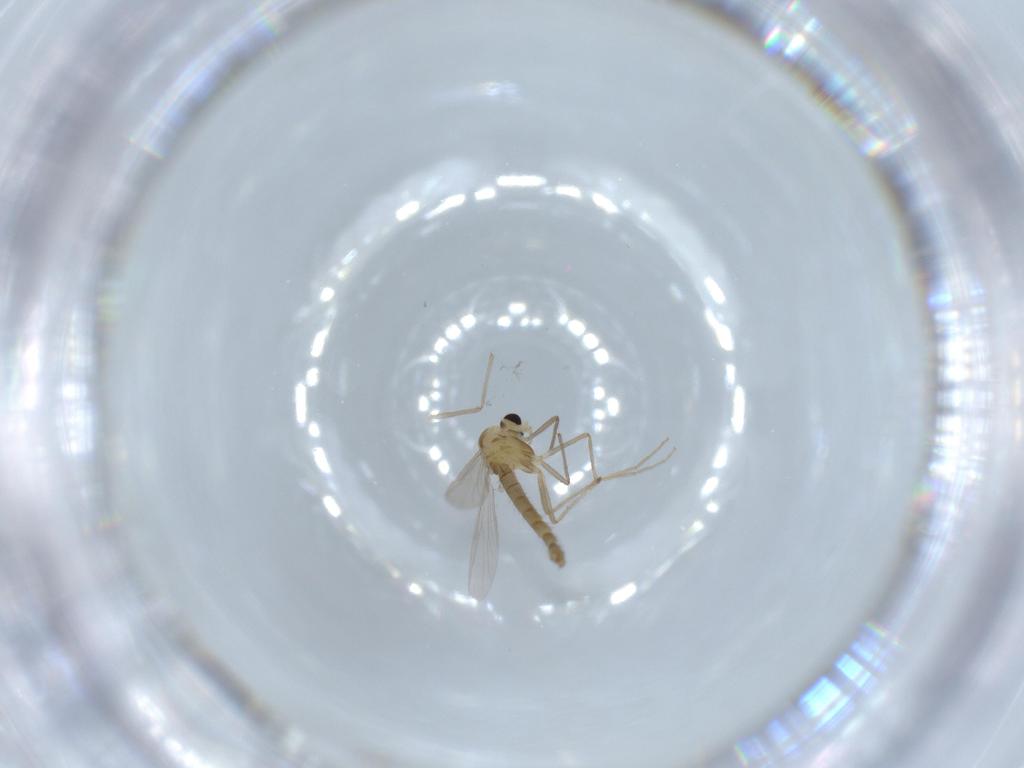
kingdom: Animalia
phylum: Arthropoda
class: Insecta
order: Diptera
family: Chironomidae
